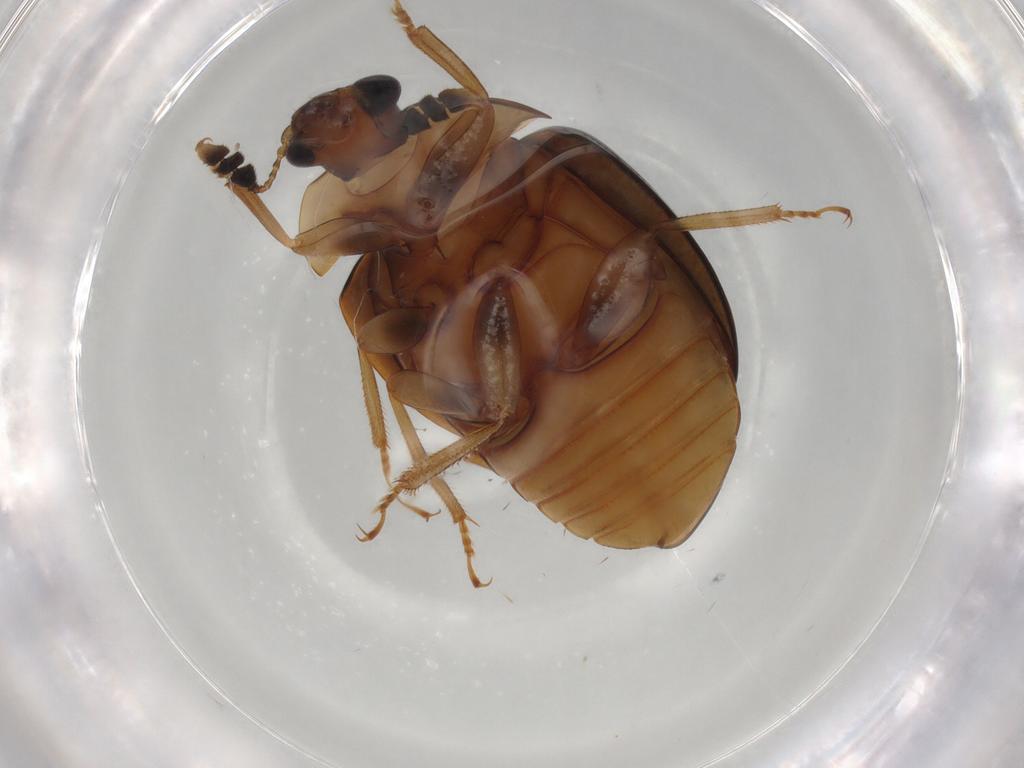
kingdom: Animalia
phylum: Arthropoda
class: Insecta
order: Coleoptera
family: Nitidulidae
